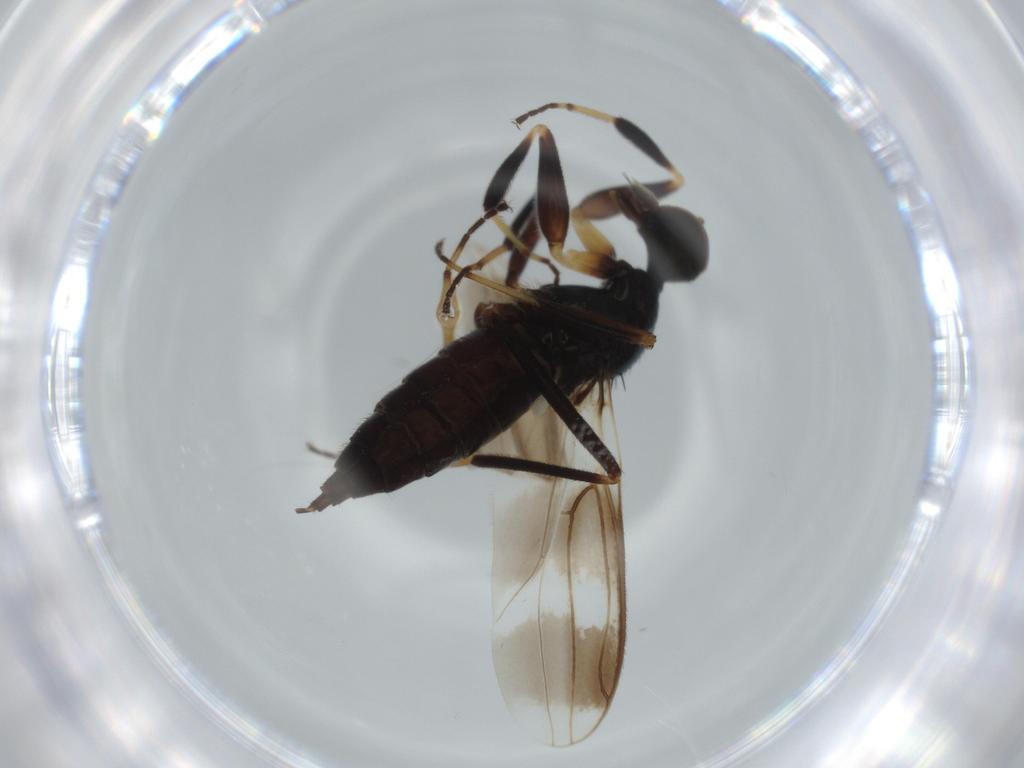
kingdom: Animalia
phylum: Arthropoda
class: Insecta
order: Diptera
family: Hybotidae
